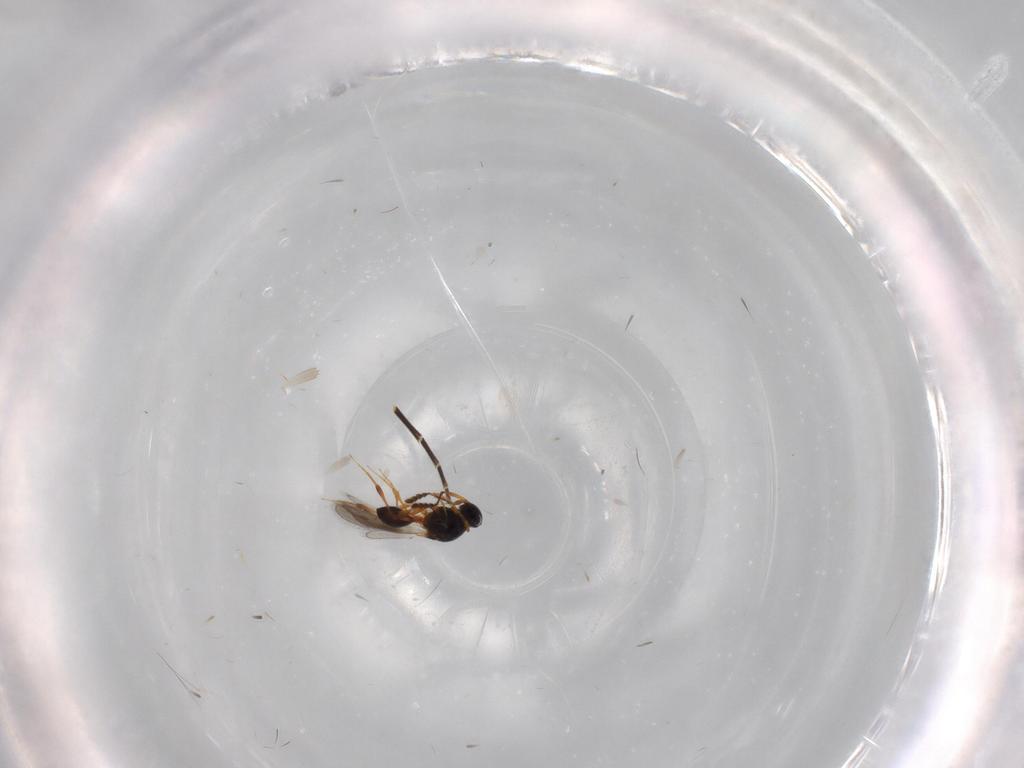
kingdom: Animalia
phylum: Arthropoda
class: Insecta
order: Hymenoptera
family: Platygastridae
